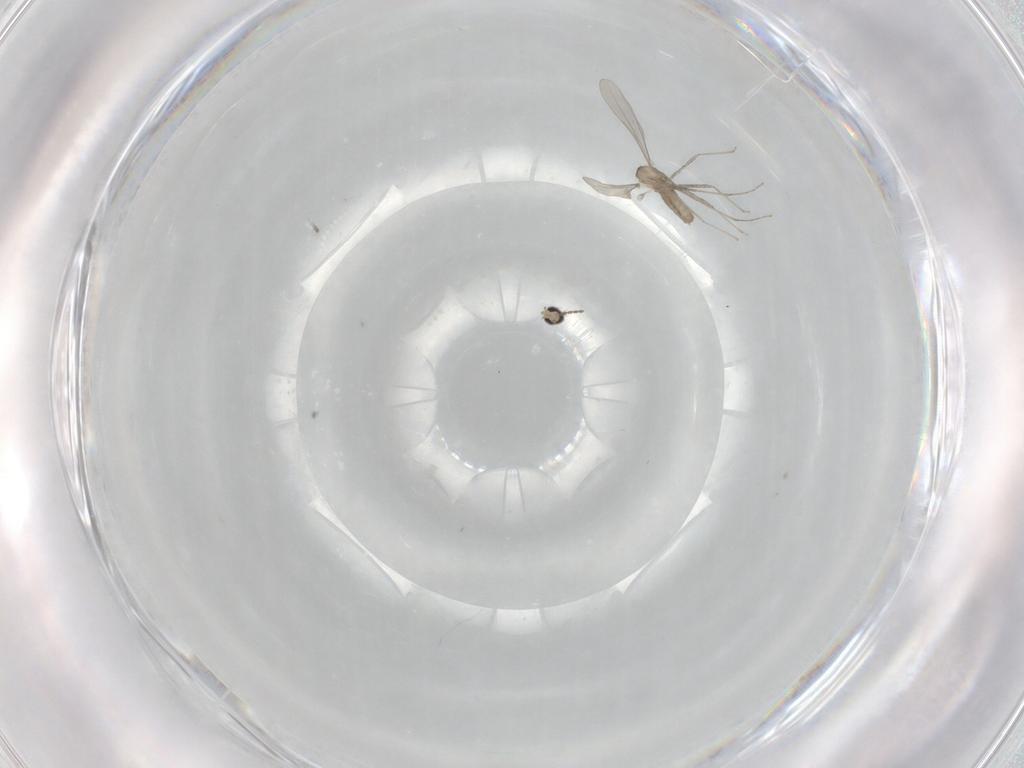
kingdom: Animalia
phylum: Arthropoda
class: Insecta
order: Diptera
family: Cecidomyiidae
